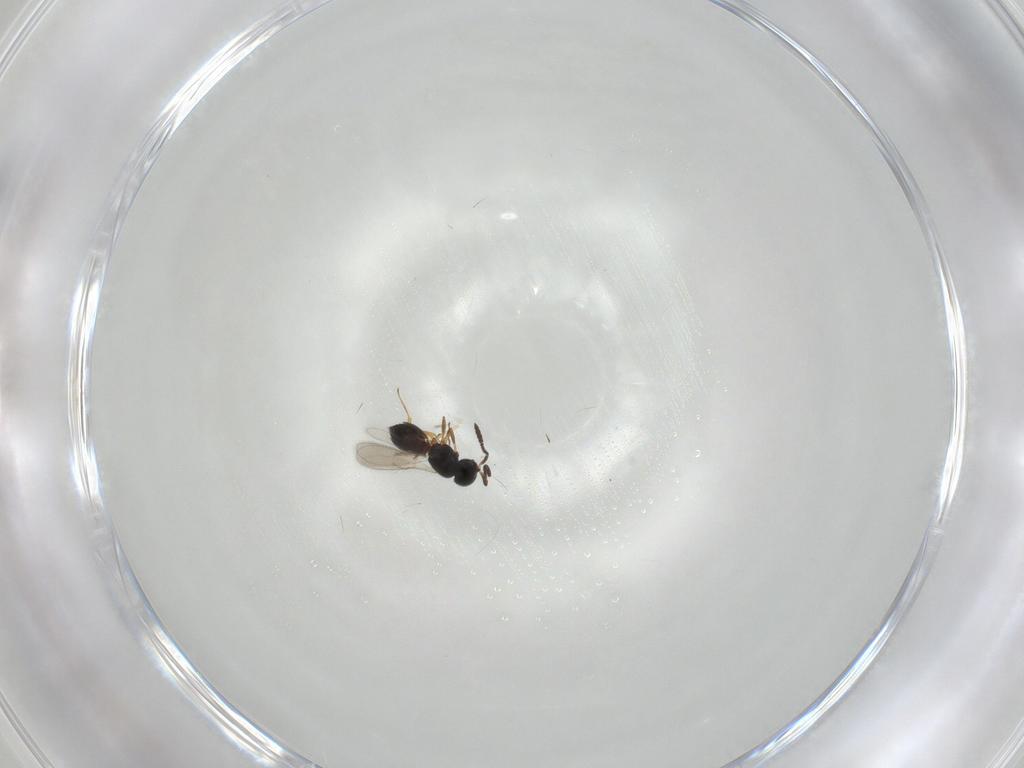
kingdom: Animalia
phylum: Arthropoda
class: Insecta
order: Hymenoptera
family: Scelionidae
